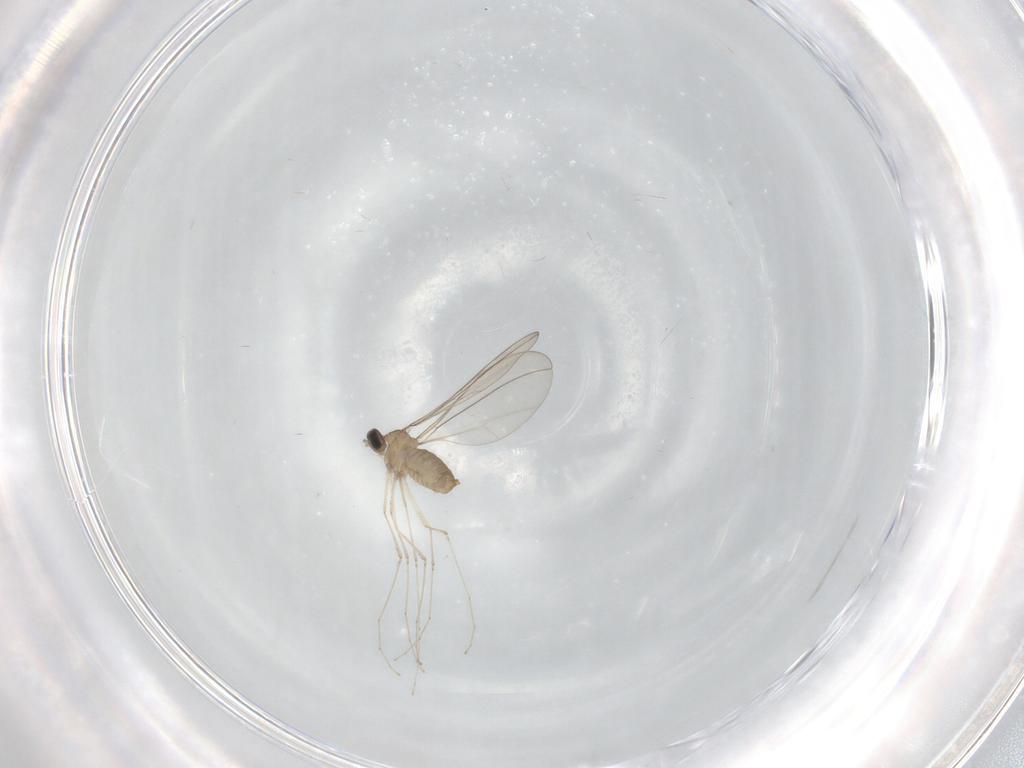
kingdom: Animalia
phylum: Arthropoda
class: Insecta
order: Diptera
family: Cecidomyiidae
